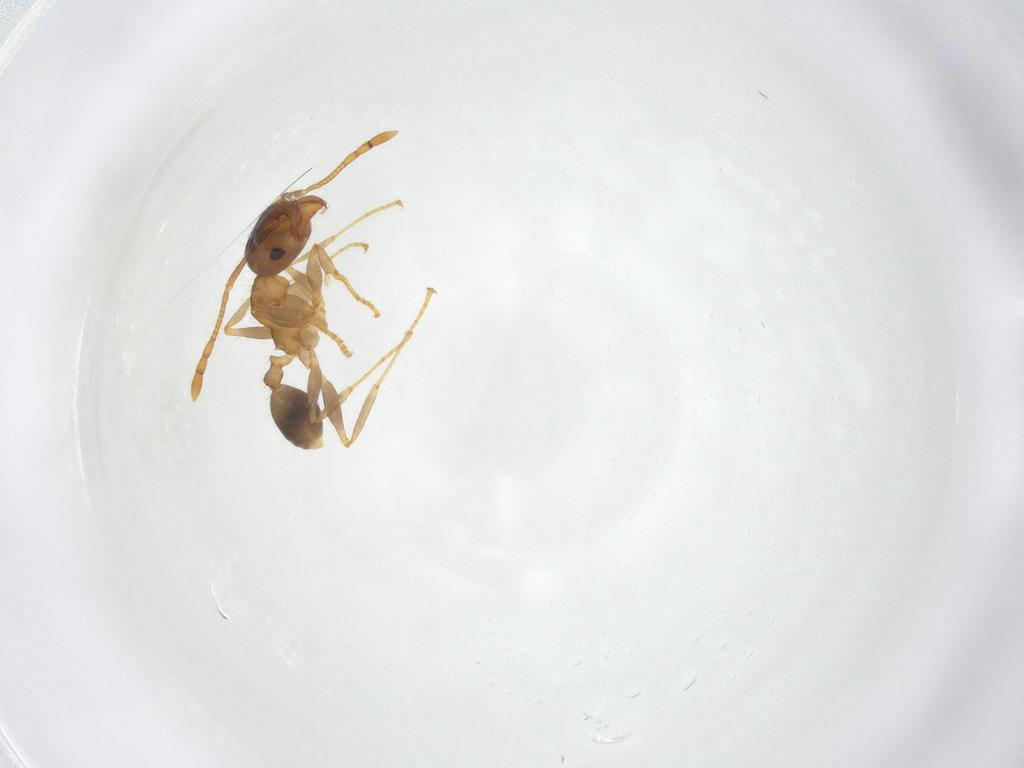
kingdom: Animalia
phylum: Arthropoda
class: Insecta
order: Hymenoptera
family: Formicidae
